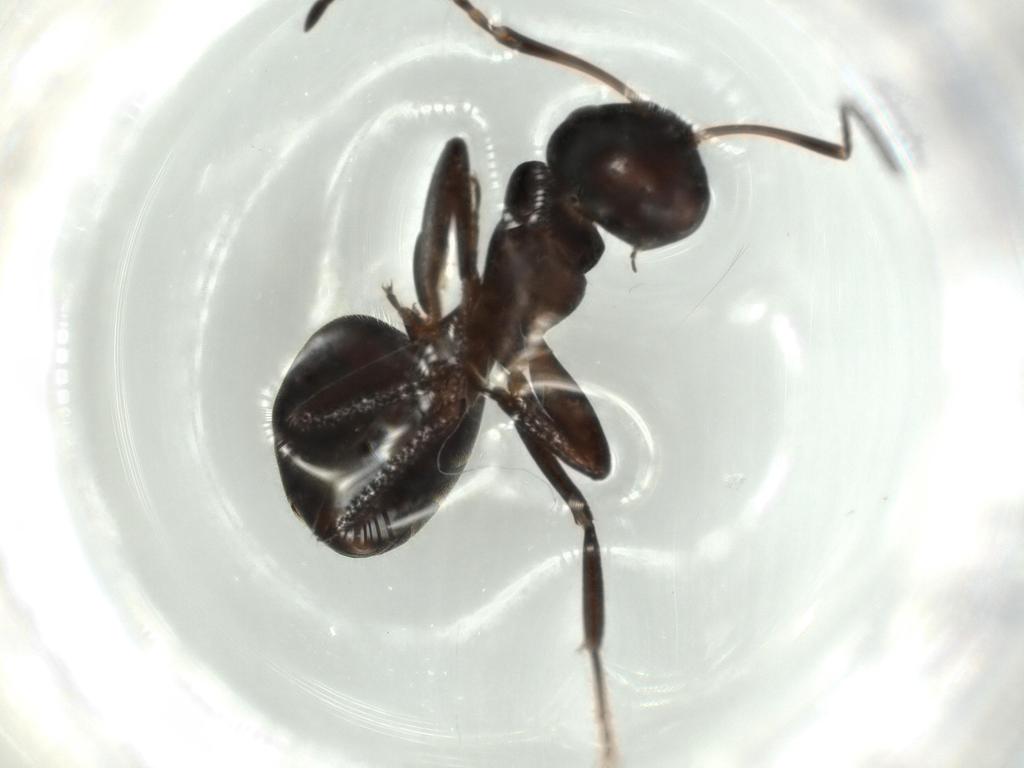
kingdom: Animalia
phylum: Arthropoda
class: Insecta
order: Hymenoptera
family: Formicidae
